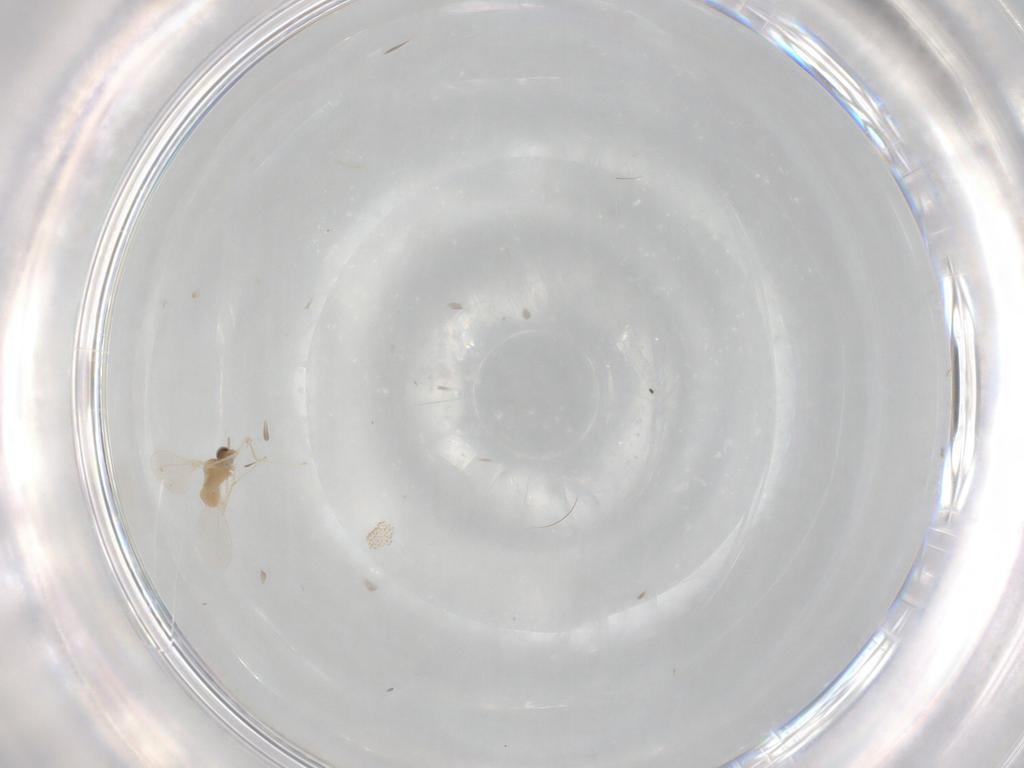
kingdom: Animalia
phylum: Arthropoda
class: Insecta
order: Diptera
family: Cecidomyiidae
